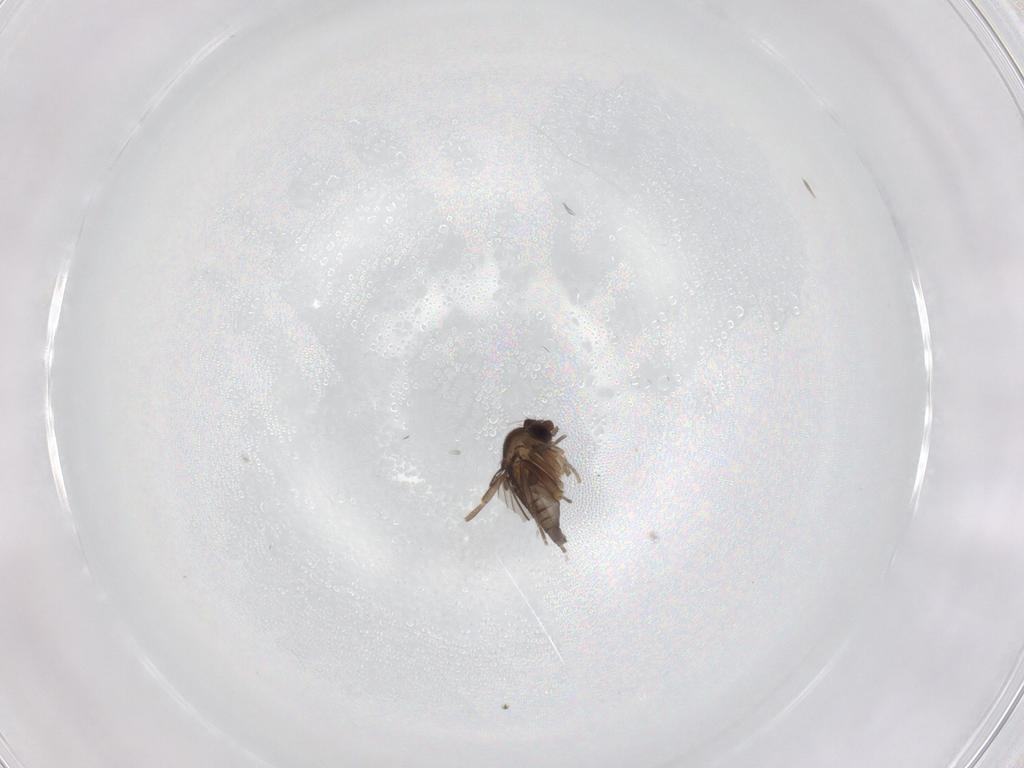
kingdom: Animalia
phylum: Arthropoda
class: Insecta
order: Diptera
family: Phoridae
